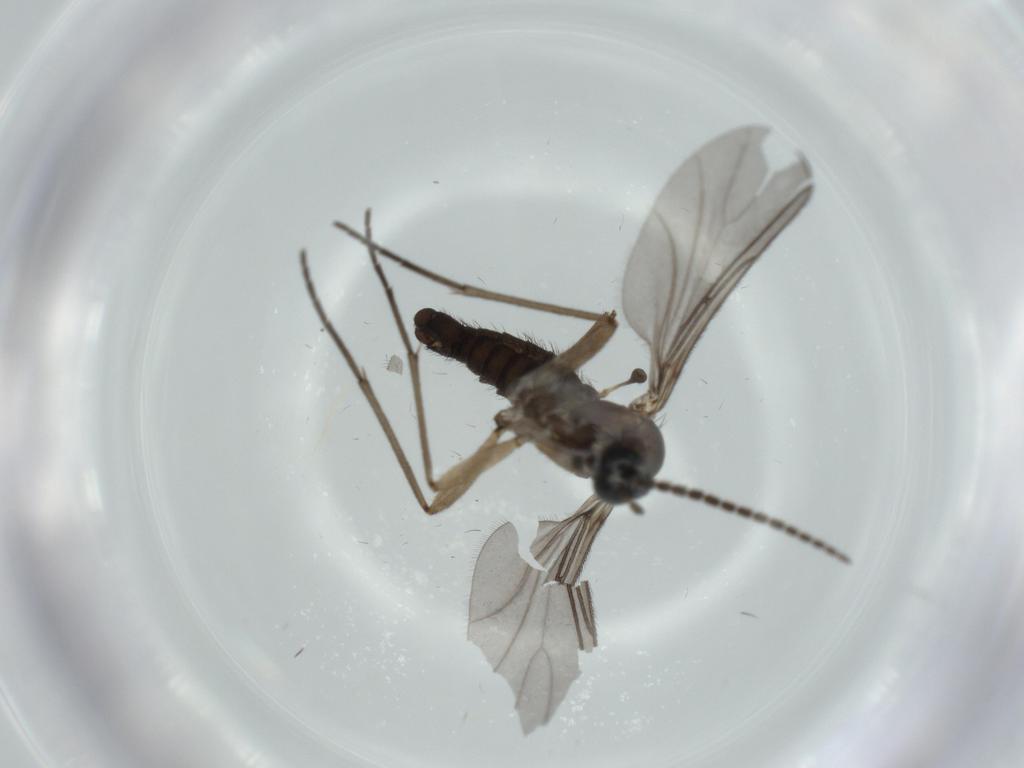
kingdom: Animalia
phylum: Arthropoda
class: Insecta
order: Diptera
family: Sciaridae
